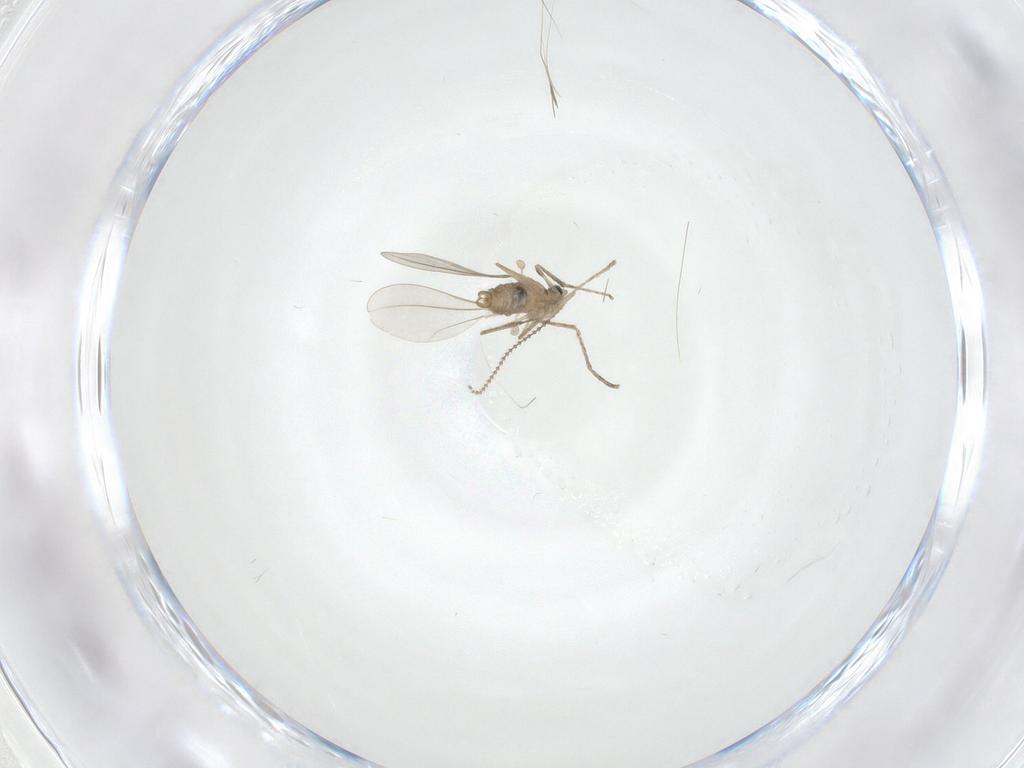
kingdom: Animalia
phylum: Arthropoda
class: Insecta
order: Diptera
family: Cecidomyiidae
